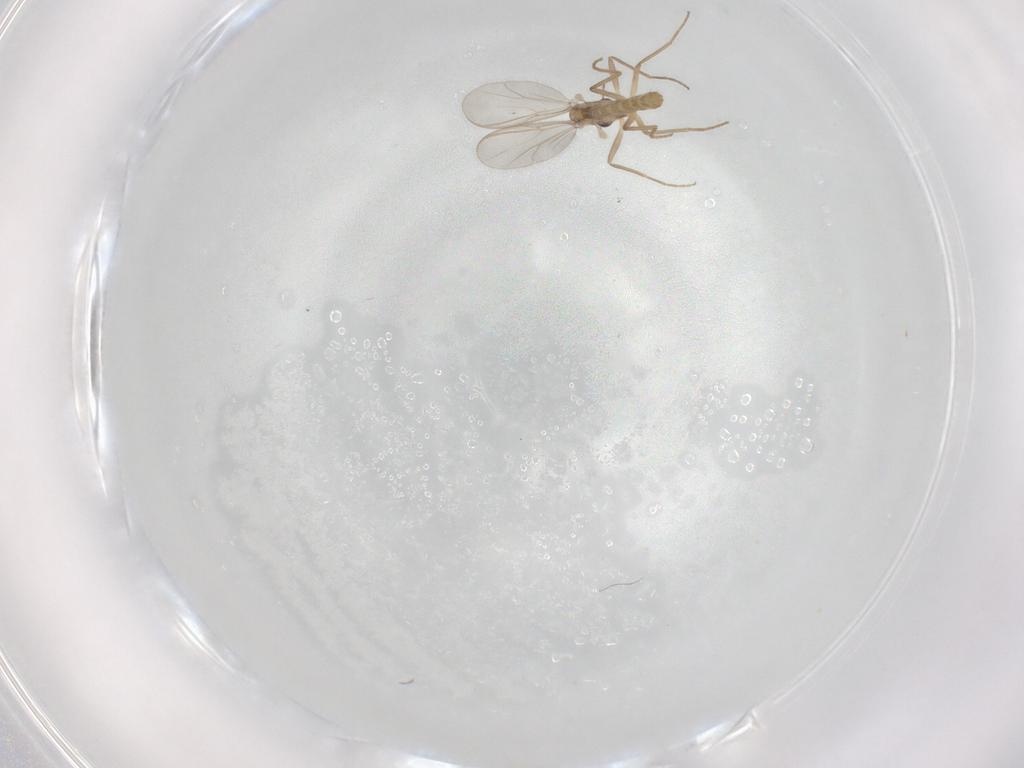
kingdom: Animalia
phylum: Arthropoda
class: Insecta
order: Diptera
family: Chironomidae
